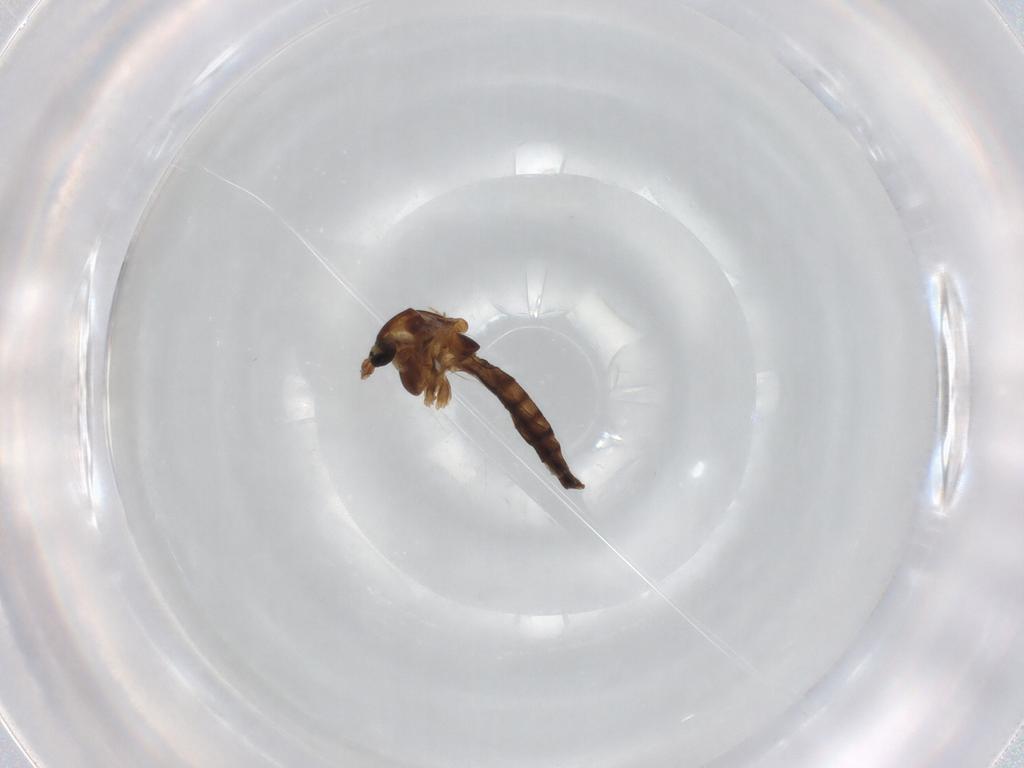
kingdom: Animalia
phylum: Arthropoda
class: Insecta
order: Diptera
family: Chironomidae
